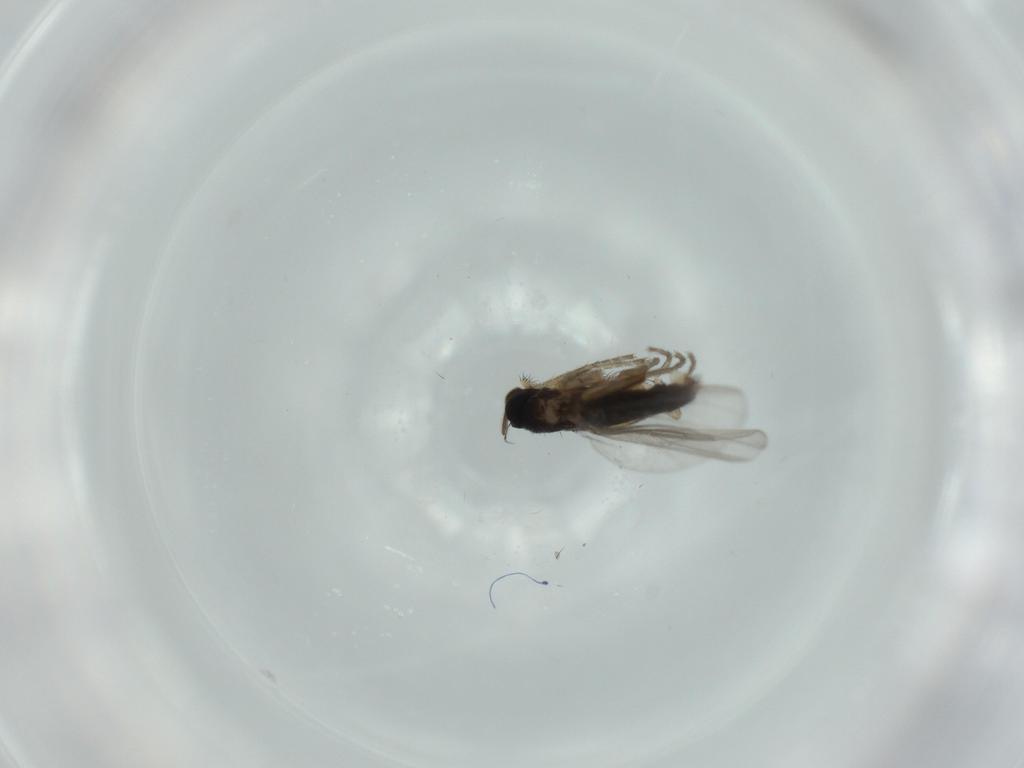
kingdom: Animalia
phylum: Arthropoda
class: Insecta
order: Diptera
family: Phoridae
